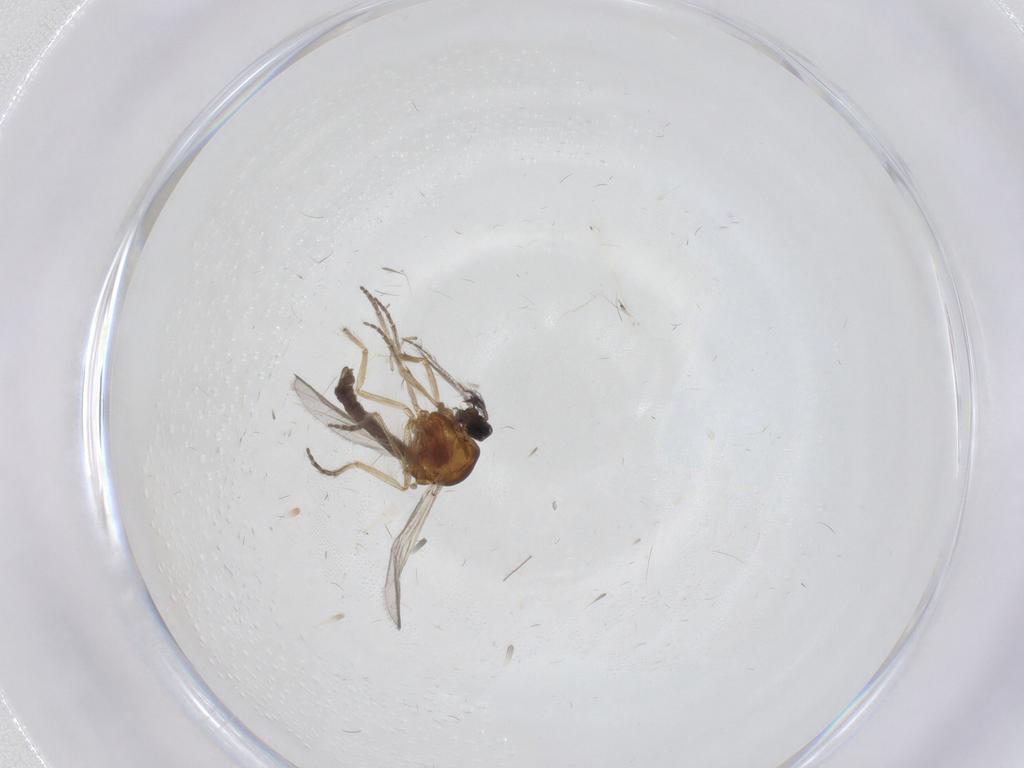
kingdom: Animalia
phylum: Arthropoda
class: Insecta
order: Diptera
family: Ceratopogonidae
